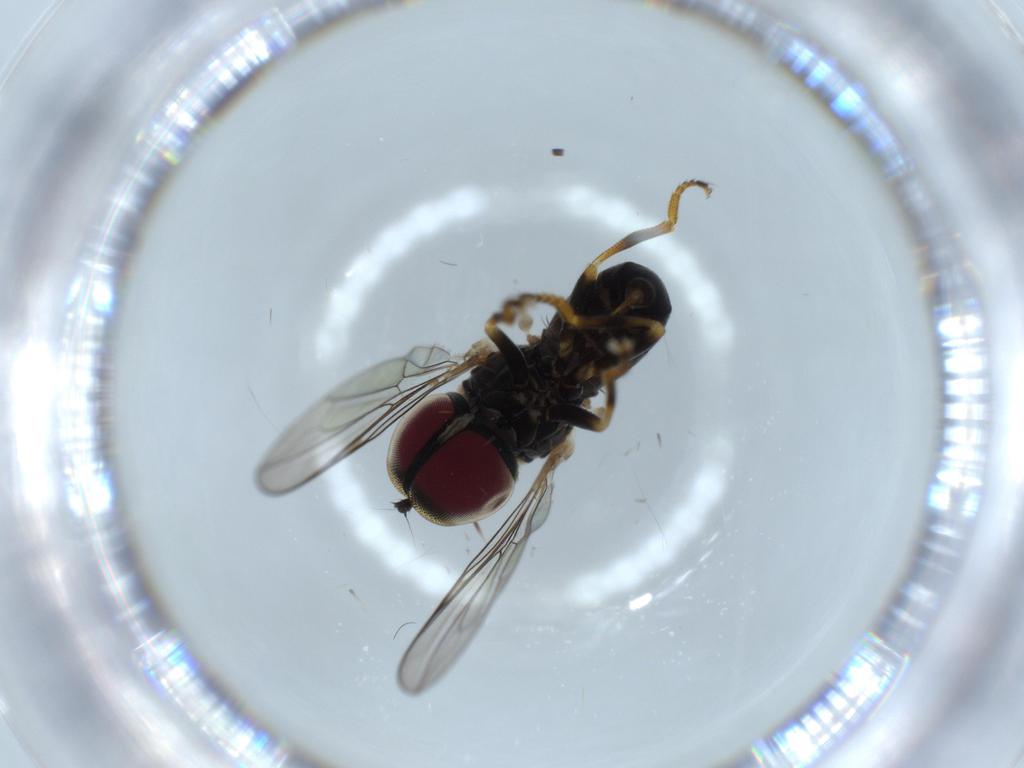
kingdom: Animalia
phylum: Arthropoda
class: Insecta
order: Diptera
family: Pipunculidae
